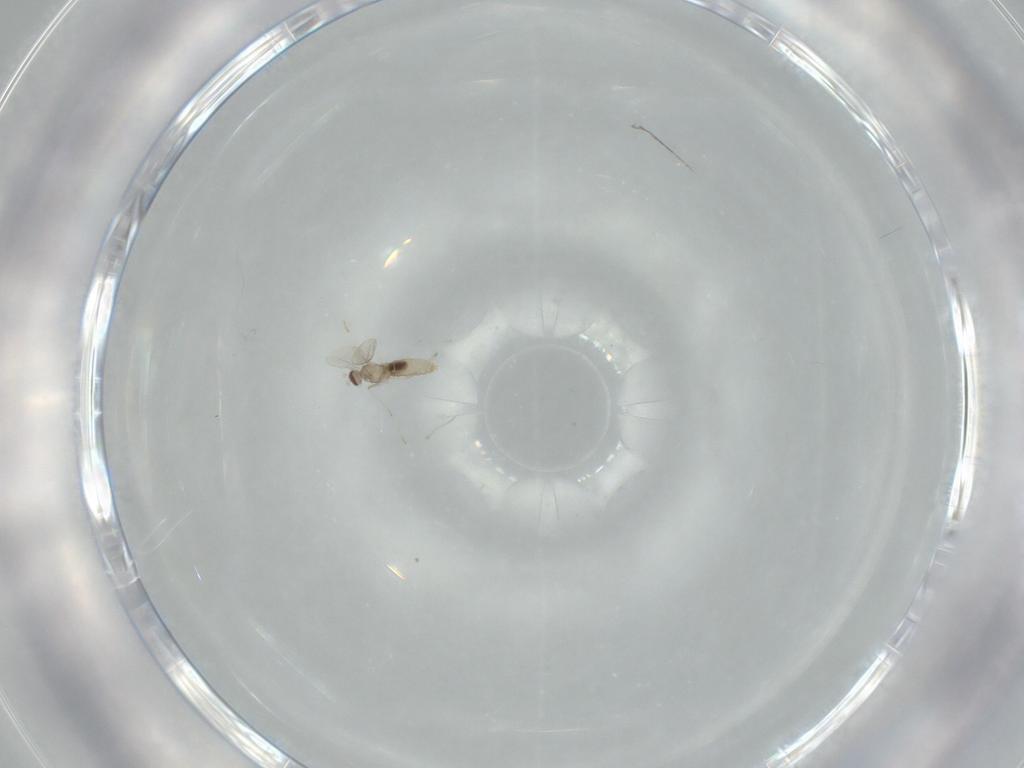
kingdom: Animalia
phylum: Arthropoda
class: Insecta
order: Diptera
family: Cecidomyiidae
